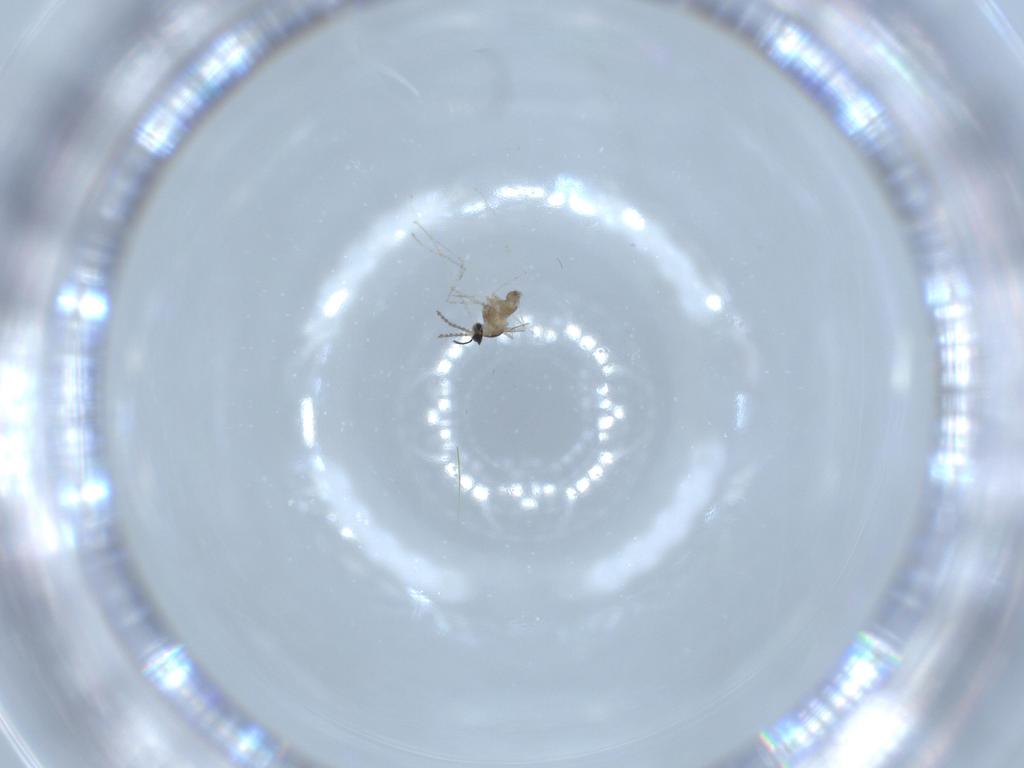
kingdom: Animalia
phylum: Arthropoda
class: Insecta
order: Diptera
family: Cecidomyiidae
